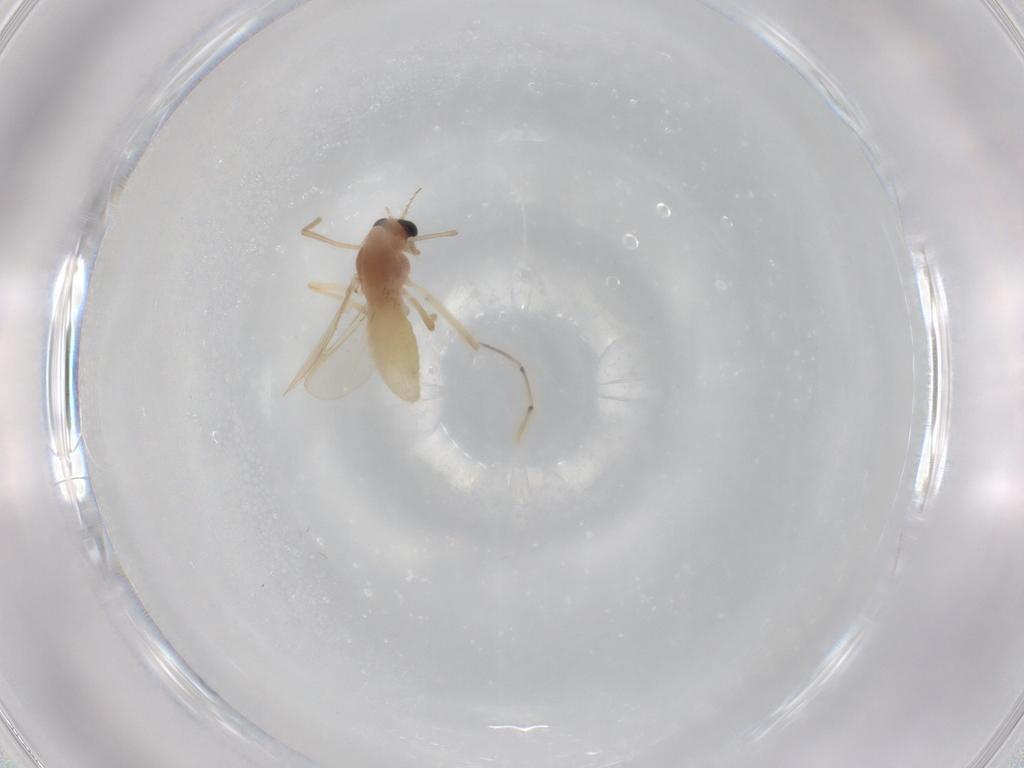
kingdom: Animalia
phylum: Arthropoda
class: Insecta
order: Diptera
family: Chironomidae
